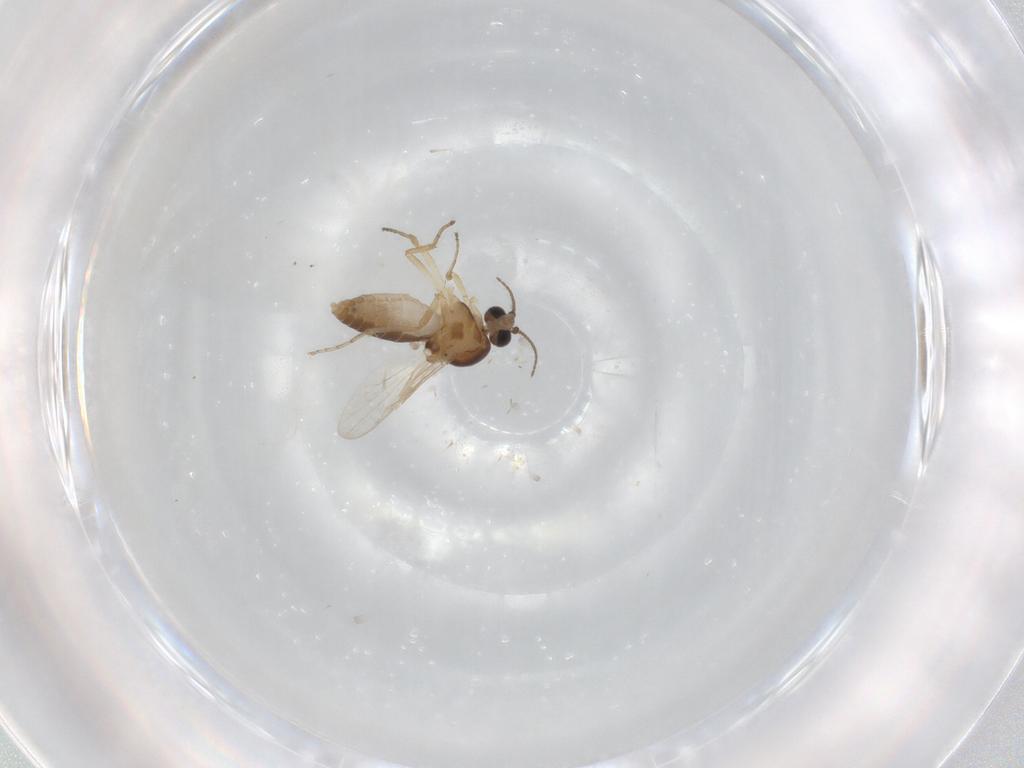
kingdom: Animalia
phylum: Arthropoda
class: Insecta
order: Diptera
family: Ceratopogonidae
